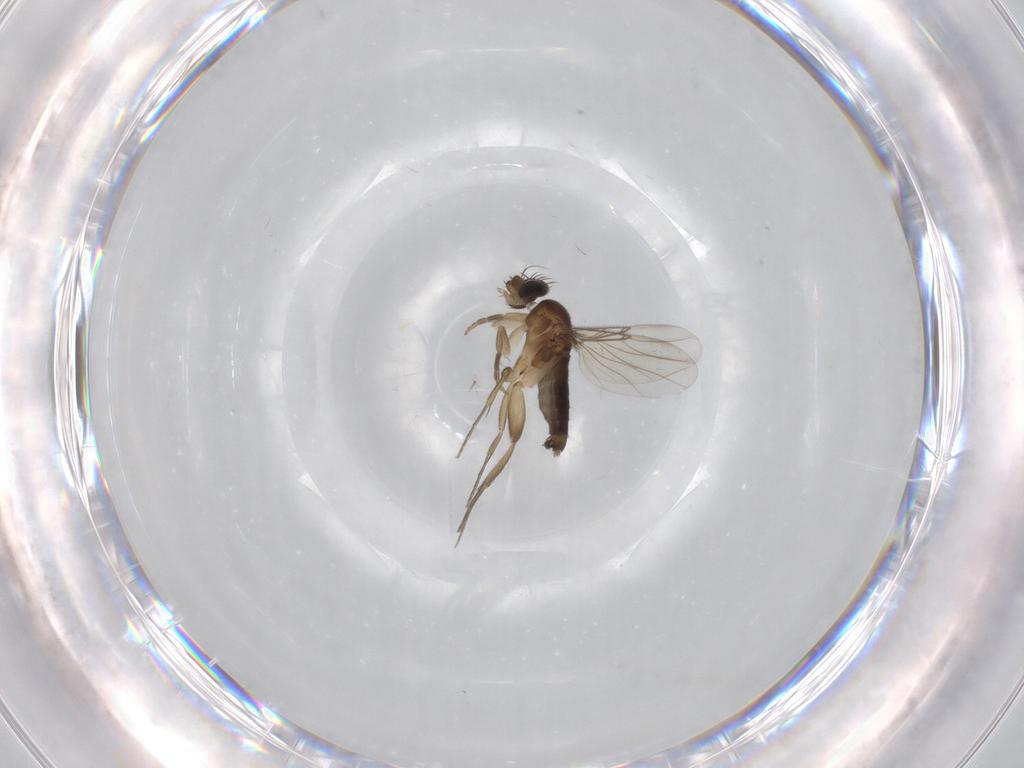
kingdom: Animalia
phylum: Arthropoda
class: Insecta
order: Diptera
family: Phoridae
